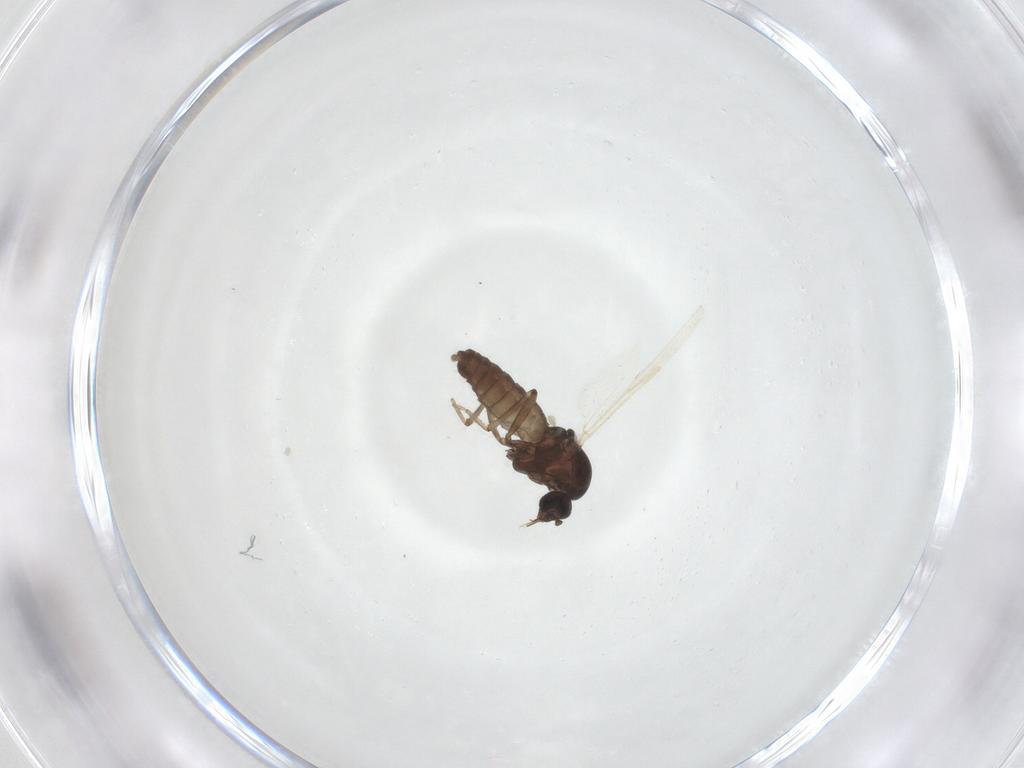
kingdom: Animalia
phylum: Arthropoda
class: Insecta
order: Diptera
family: Ceratopogonidae
